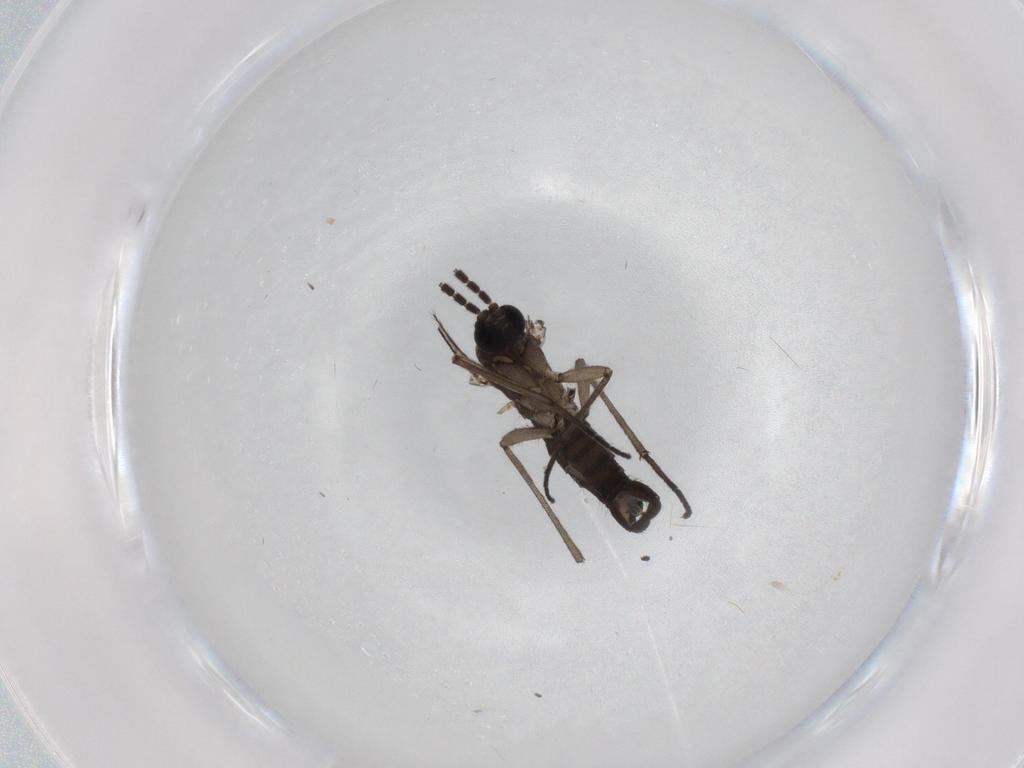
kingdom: Animalia
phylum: Arthropoda
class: Insecta
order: Diptera
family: Sciaridae
